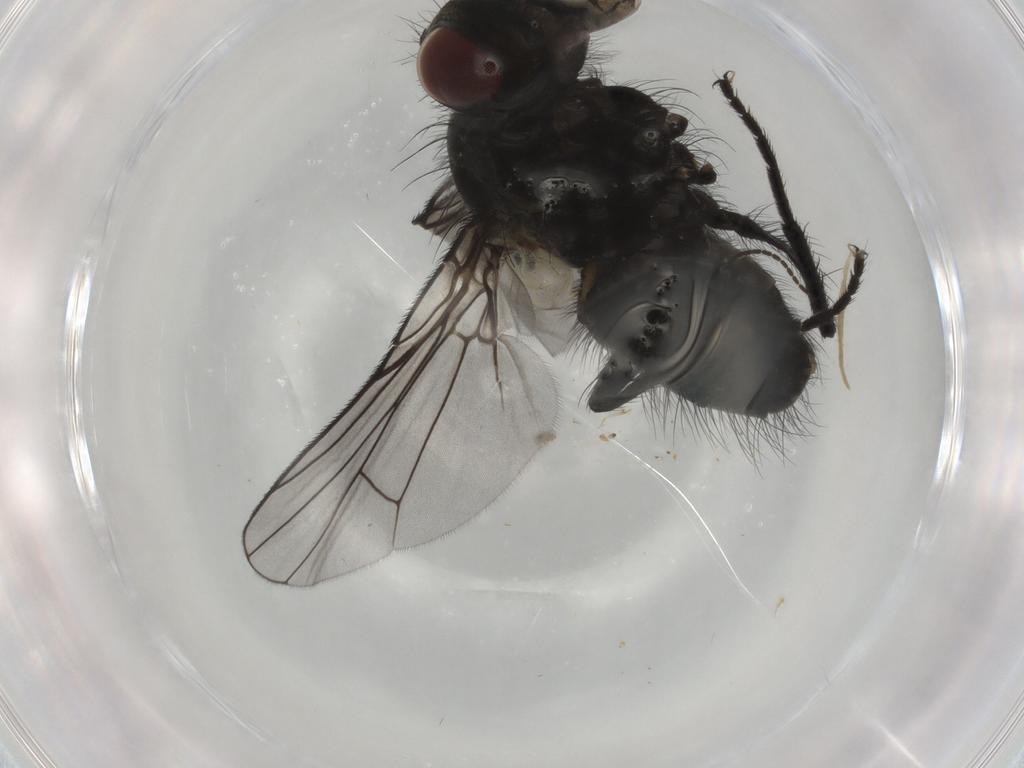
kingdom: Animalia
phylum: Arthropoda
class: Insecta
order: Diptera
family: Muscidae
